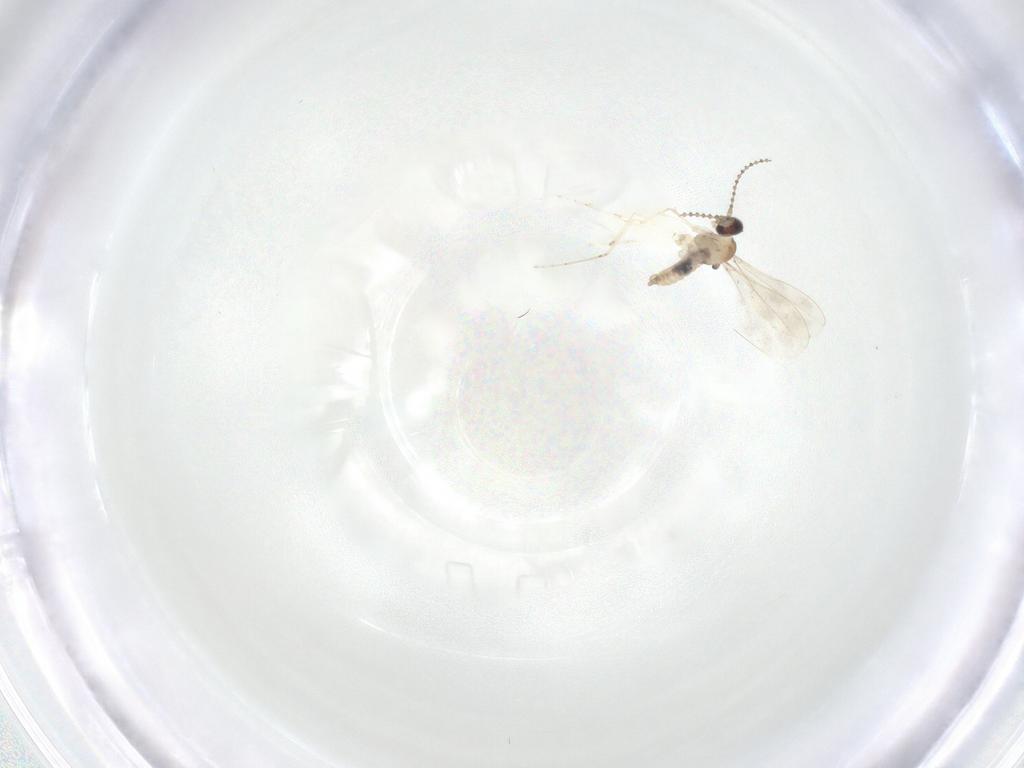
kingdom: Animalia
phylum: Arthropoda
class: Insecta
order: Diptera
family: Cecidomyiidae
